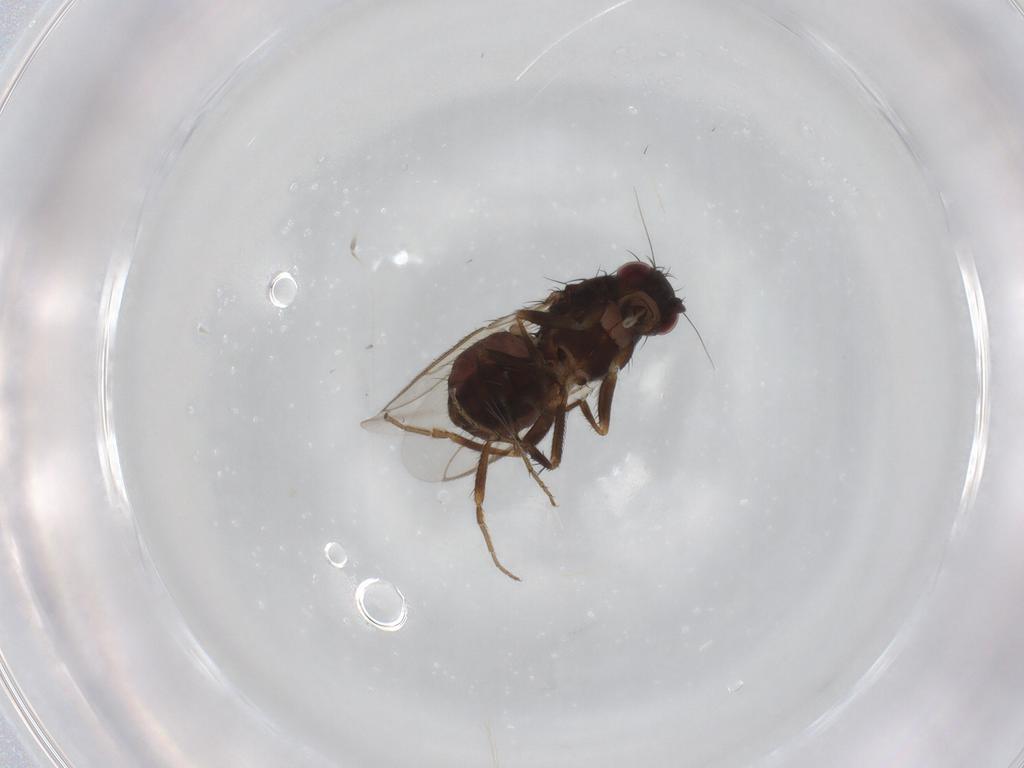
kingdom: Animalia
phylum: Arthropoda
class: Insecta
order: Diptera
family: Sphaeroceridae
